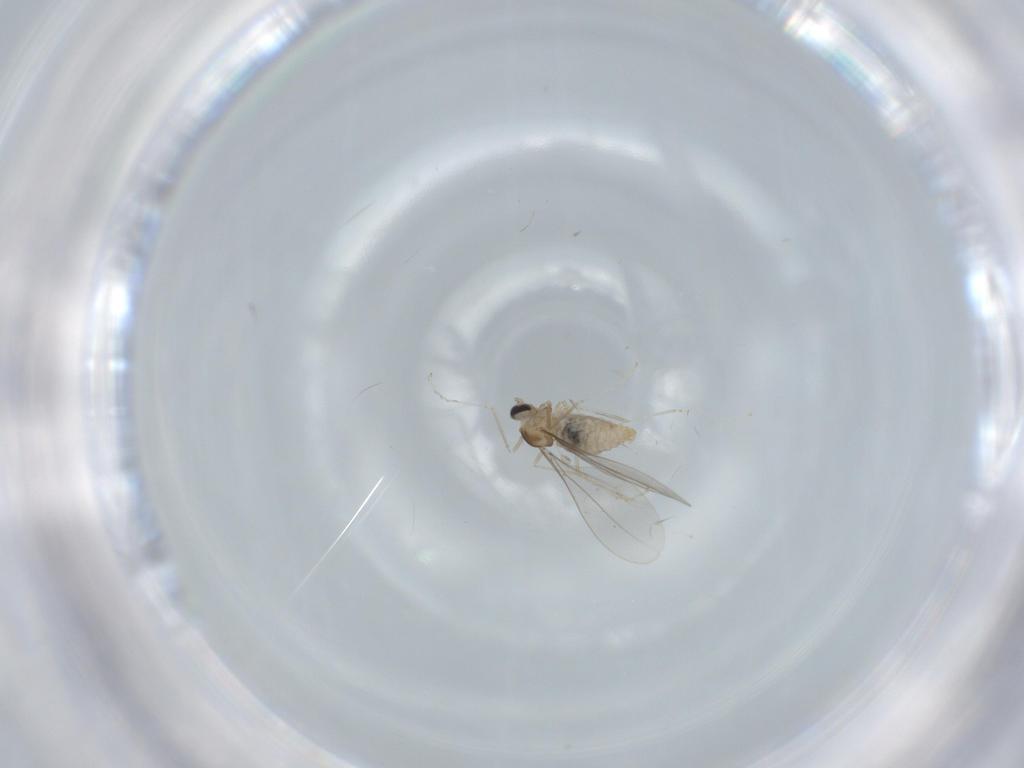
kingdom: Animalia
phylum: Arthropoda
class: Insecta
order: Diptera
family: Cecidomyiidae
